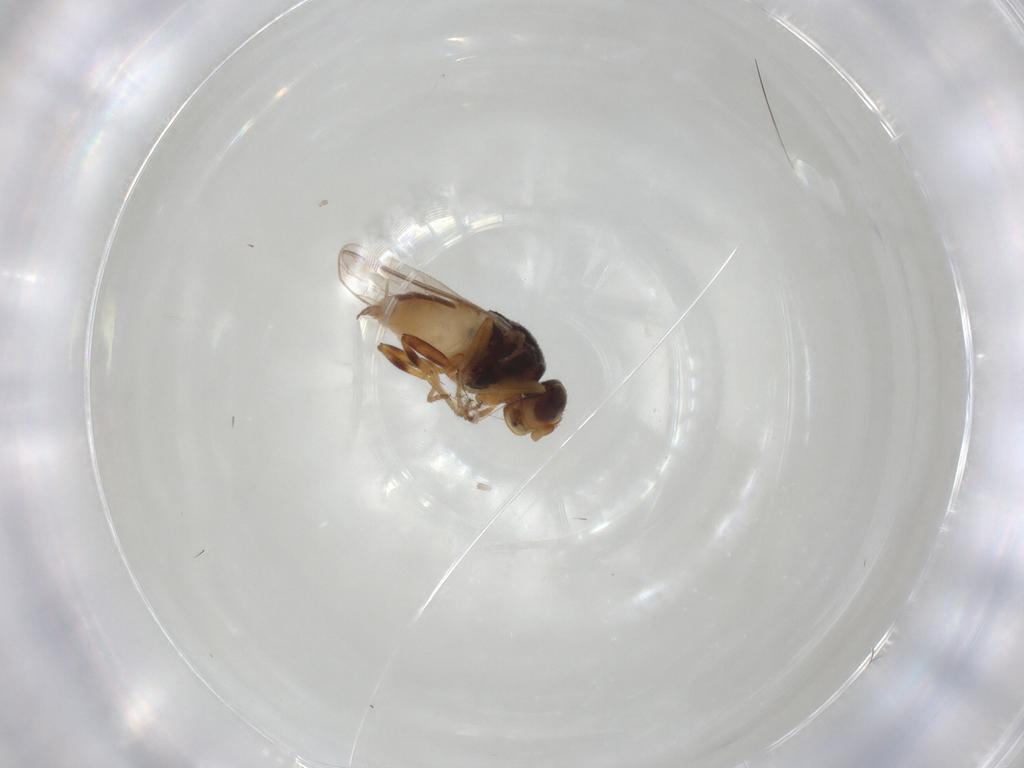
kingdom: Animalia
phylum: Arthropoda
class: Insecta
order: Diptera
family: Chloropidae
